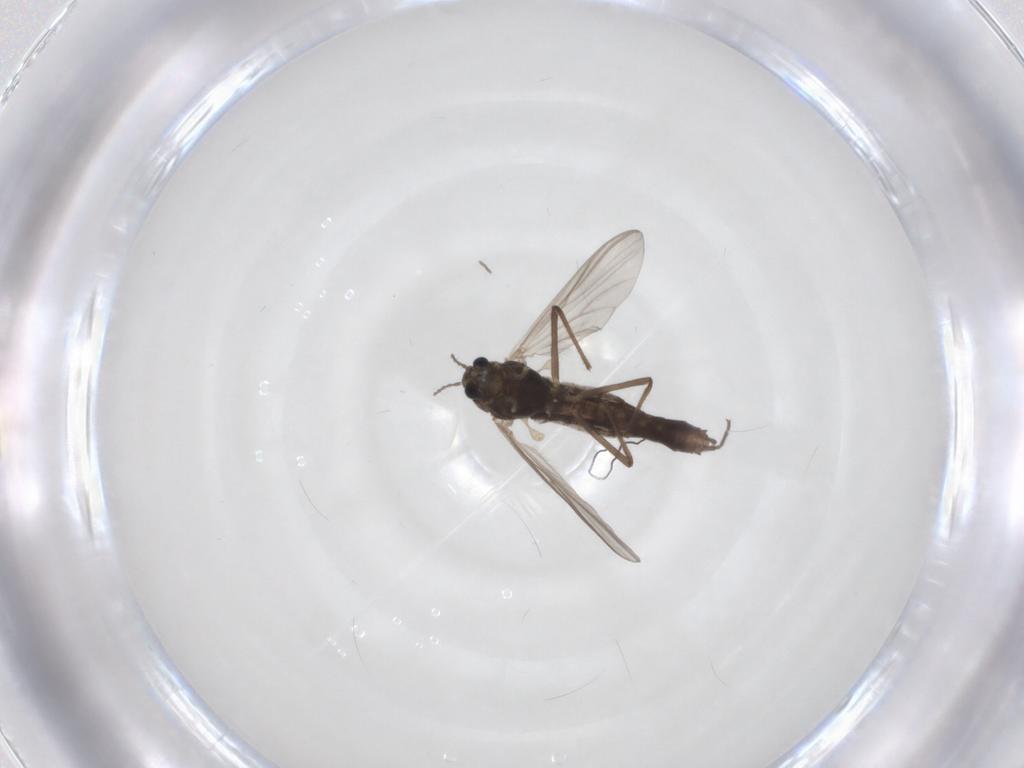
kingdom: Animalia
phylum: Arthropoda
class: Insecta
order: Diptera
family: Chironomidae
